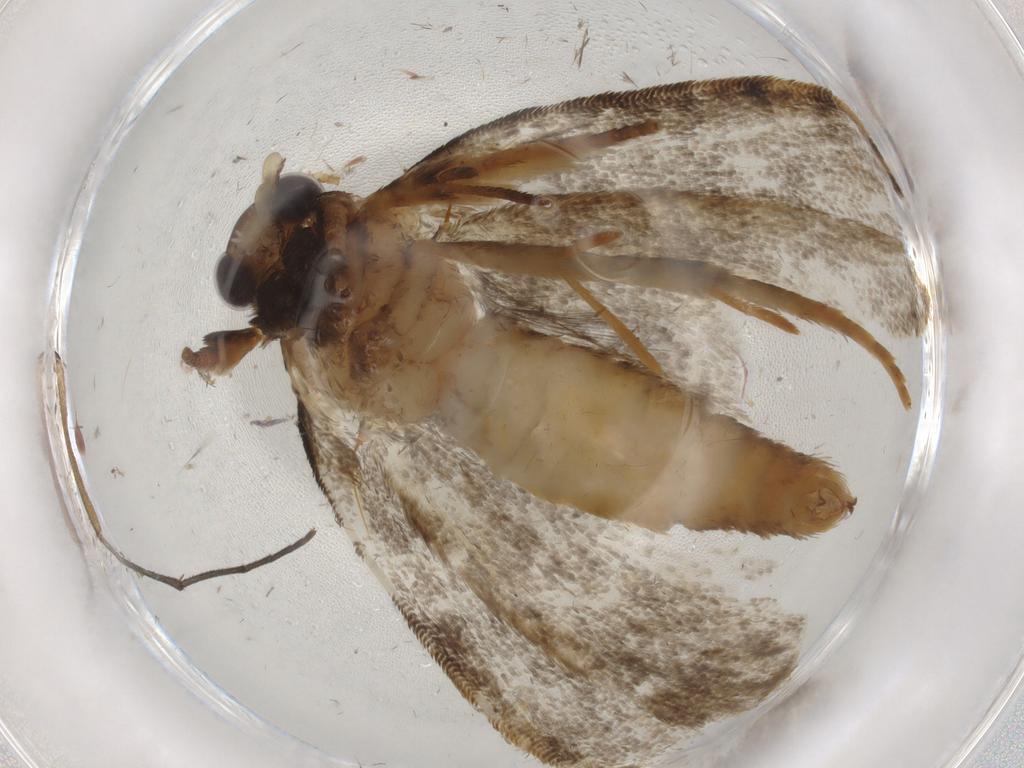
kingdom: Animalia
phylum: Arthropoda
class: Insecta
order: Lepidoptera
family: Tineidae
